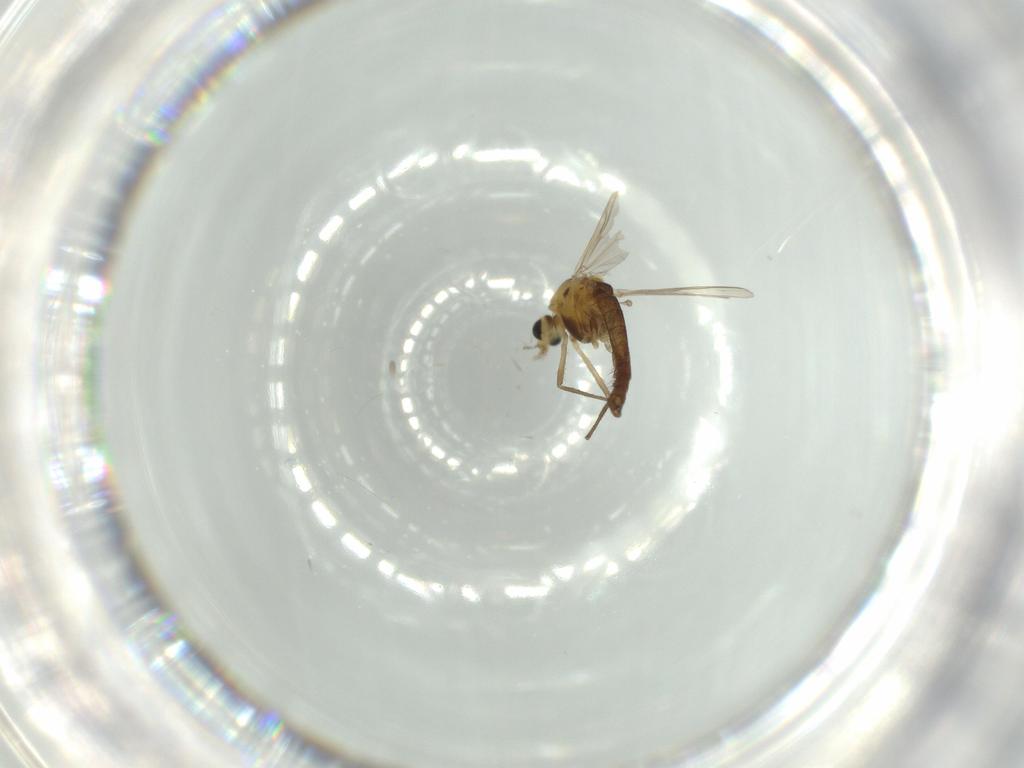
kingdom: Animalia
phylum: Arthropoda
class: Insecta
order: Diptera
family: Chironomidae
